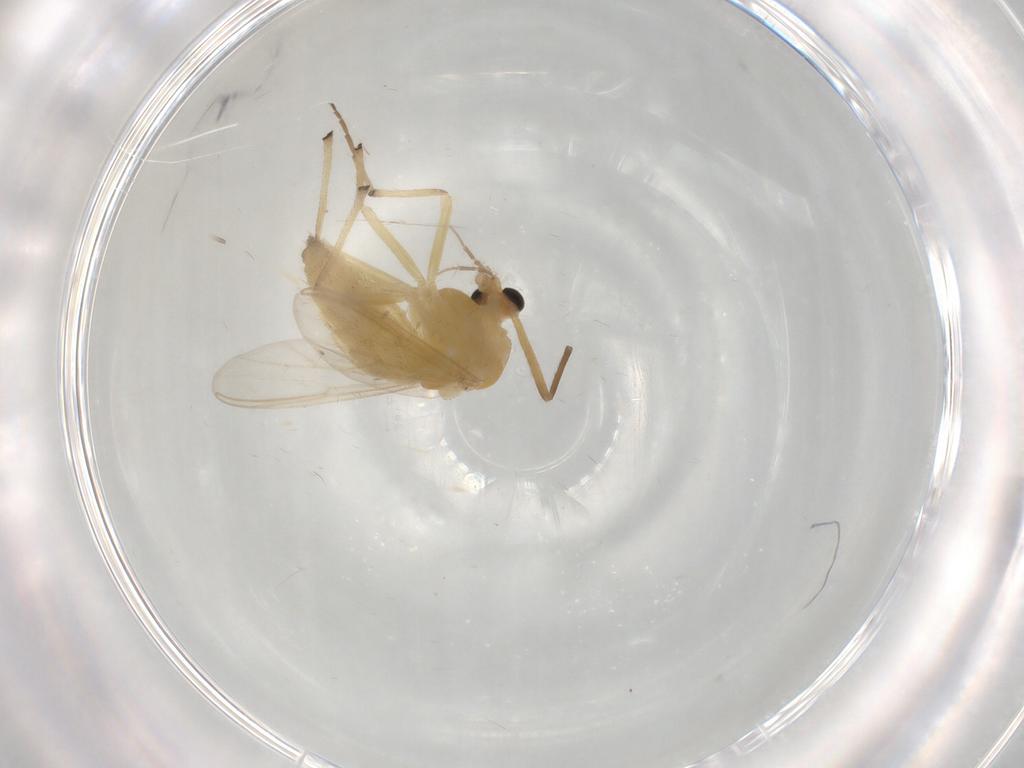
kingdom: Animalia
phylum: Arthropoda
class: Insecta
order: Diptera
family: Chironomidae
